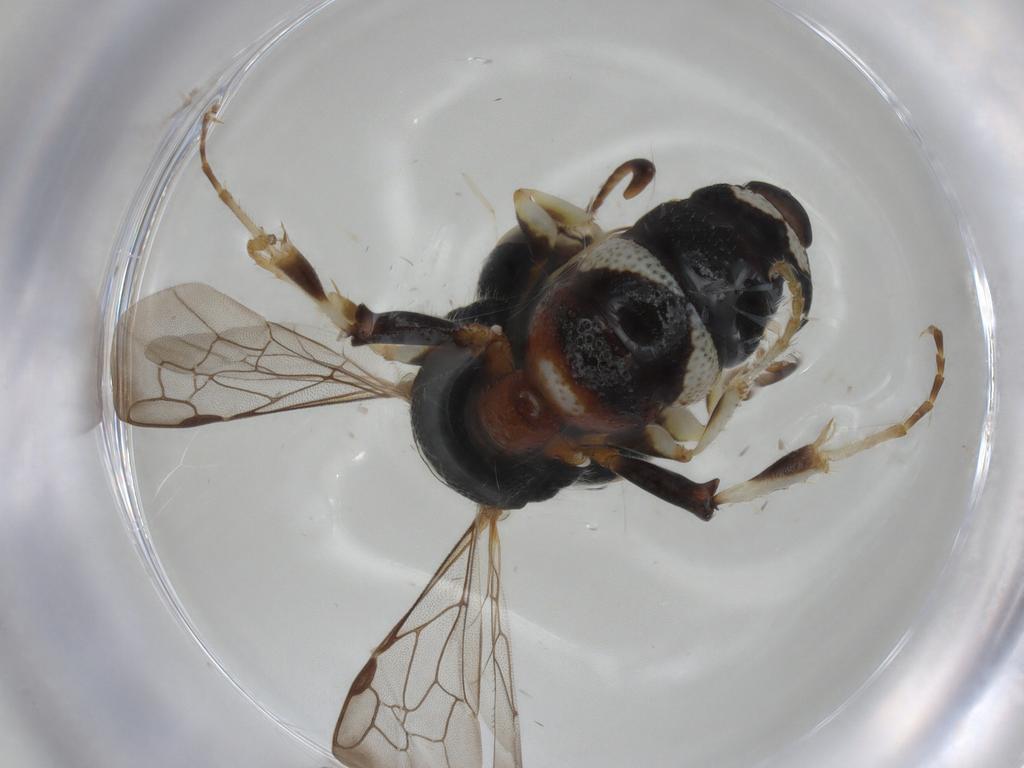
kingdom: Animalia
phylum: Arthropoda
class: Insecta
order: Hymenoptera
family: Crabronidae
